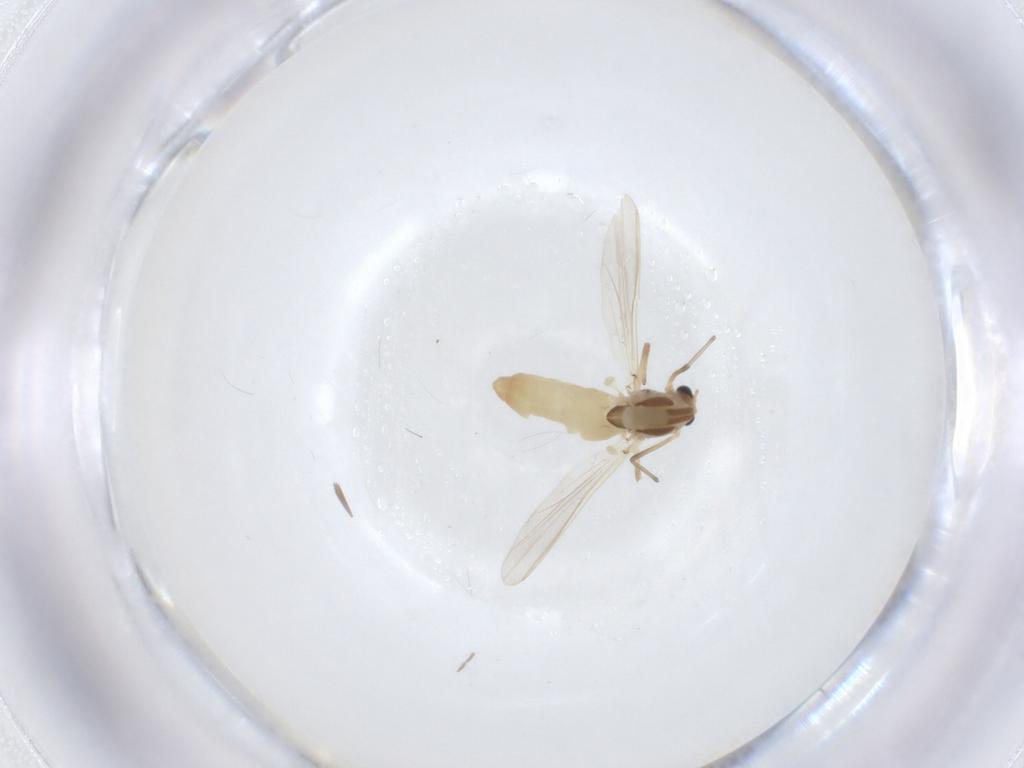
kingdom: Animalia
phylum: Arthropoda
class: Insecta
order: Diptera
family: Chironomidae
